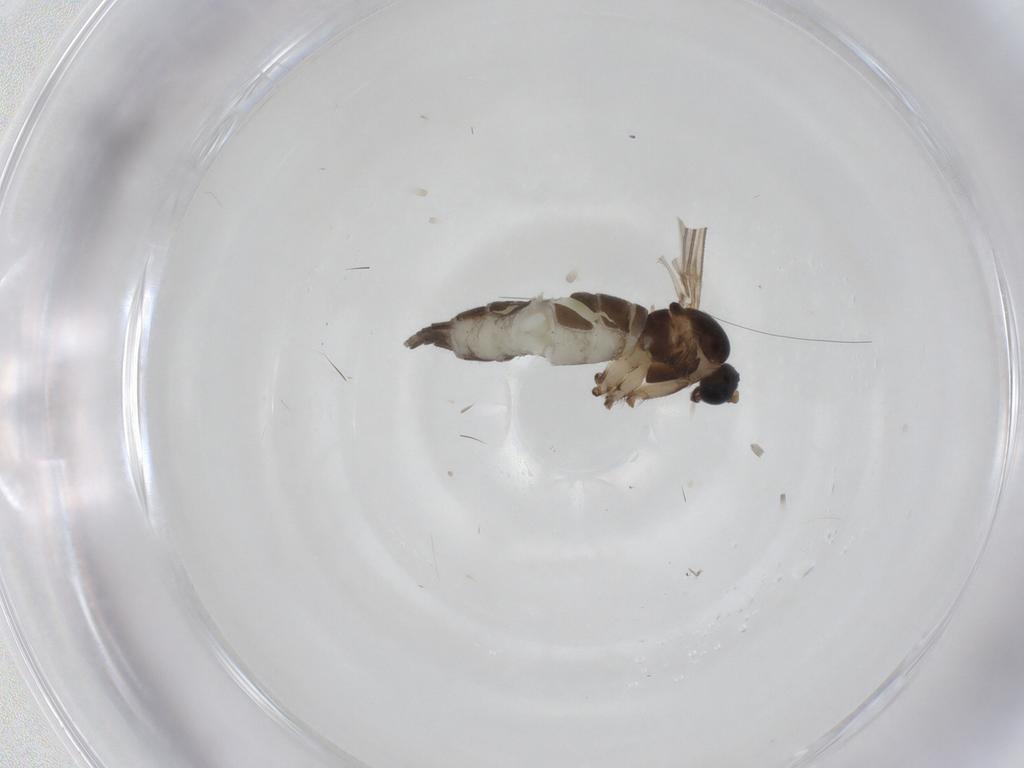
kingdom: Animalia
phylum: Arthropoda
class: Insecta
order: Diptera
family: Sciaridae
